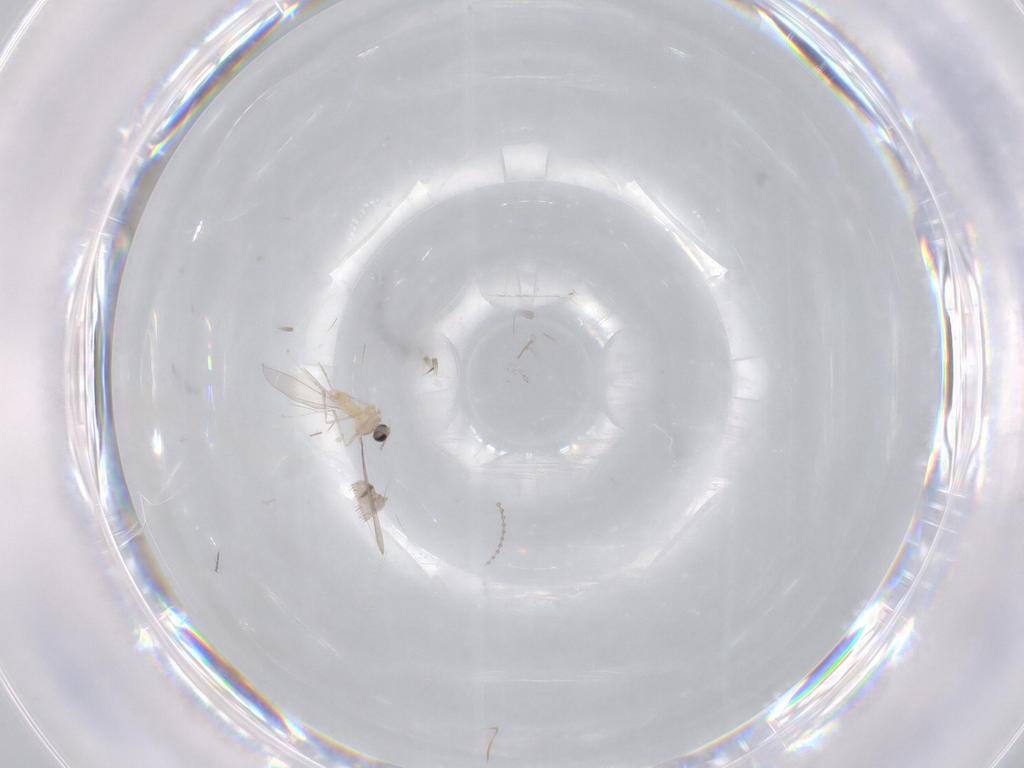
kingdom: Animalia
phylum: Arthropoda
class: Insecta
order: Diptera
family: Cecidomyiidae
